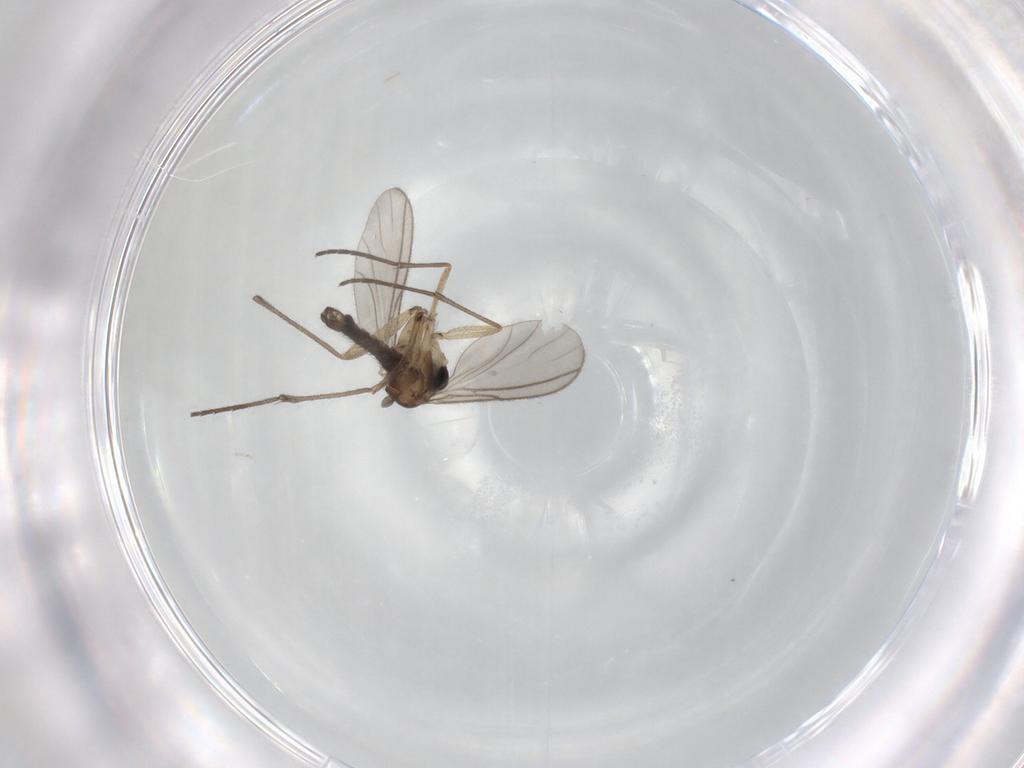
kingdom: Animalia
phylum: Arthropoda
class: Insecta
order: Diptera
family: Sciaridae
